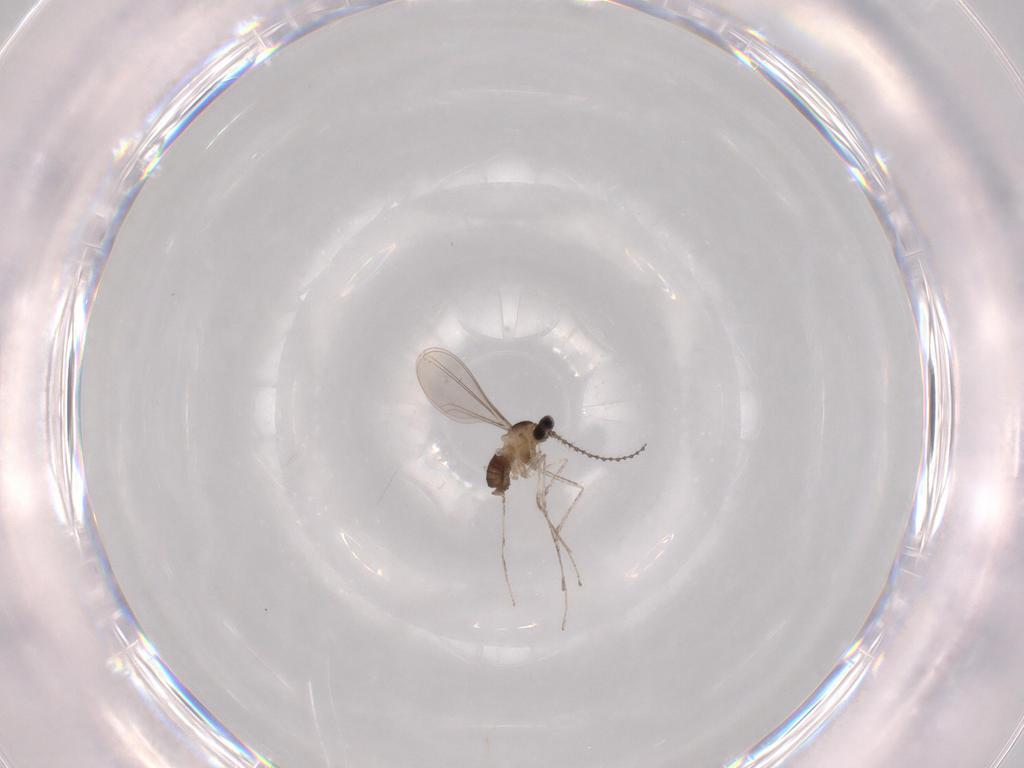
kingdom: Animalia
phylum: Arthropoda
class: Insecta
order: Diptera
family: Cecidomyiidae
